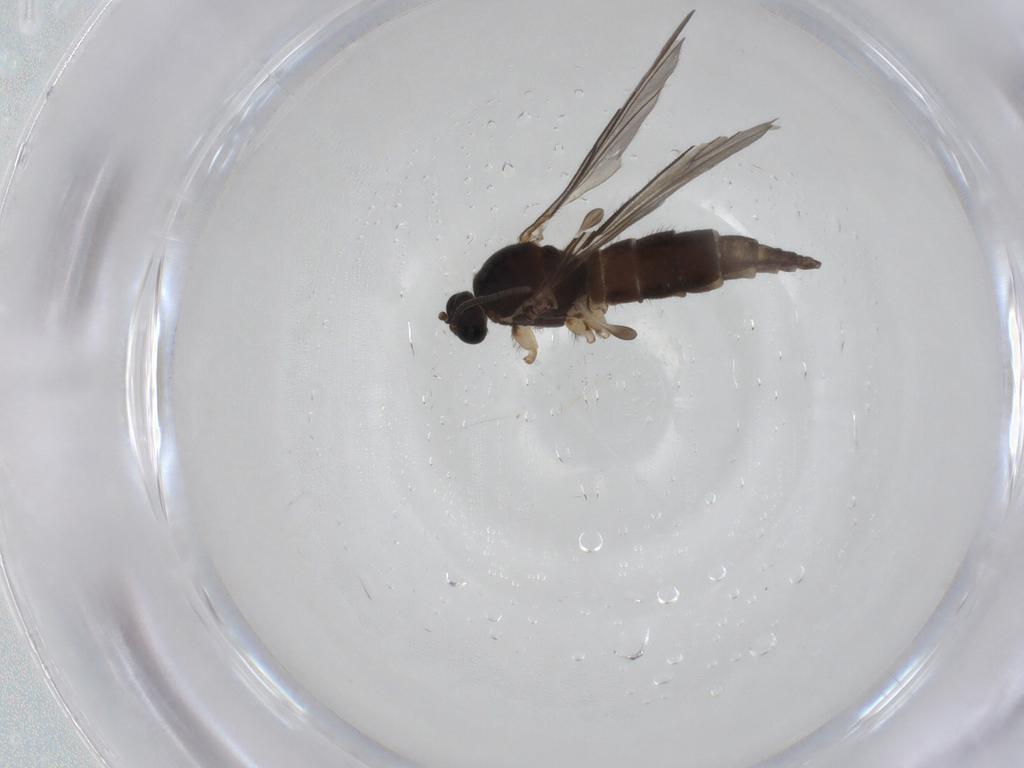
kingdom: Animalia
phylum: Arthropoda
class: Insecta
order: Diptera
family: Sciaridae
